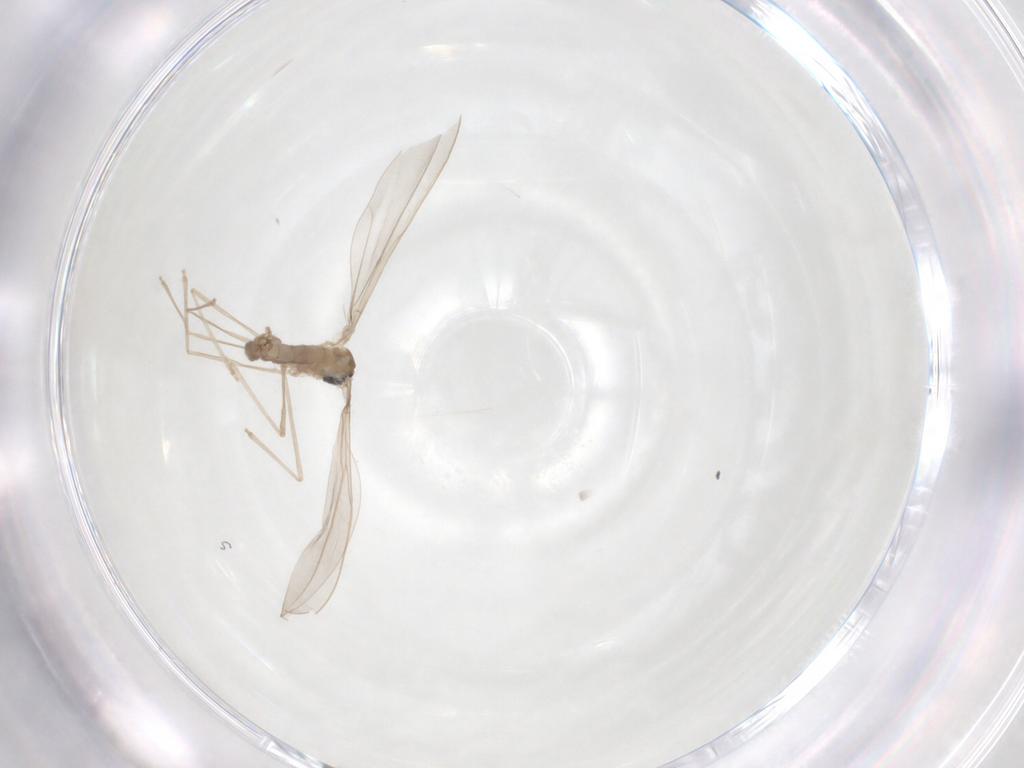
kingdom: Animalia
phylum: Arthropoda
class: Insecta
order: Diptera
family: Cecidomyiidae
